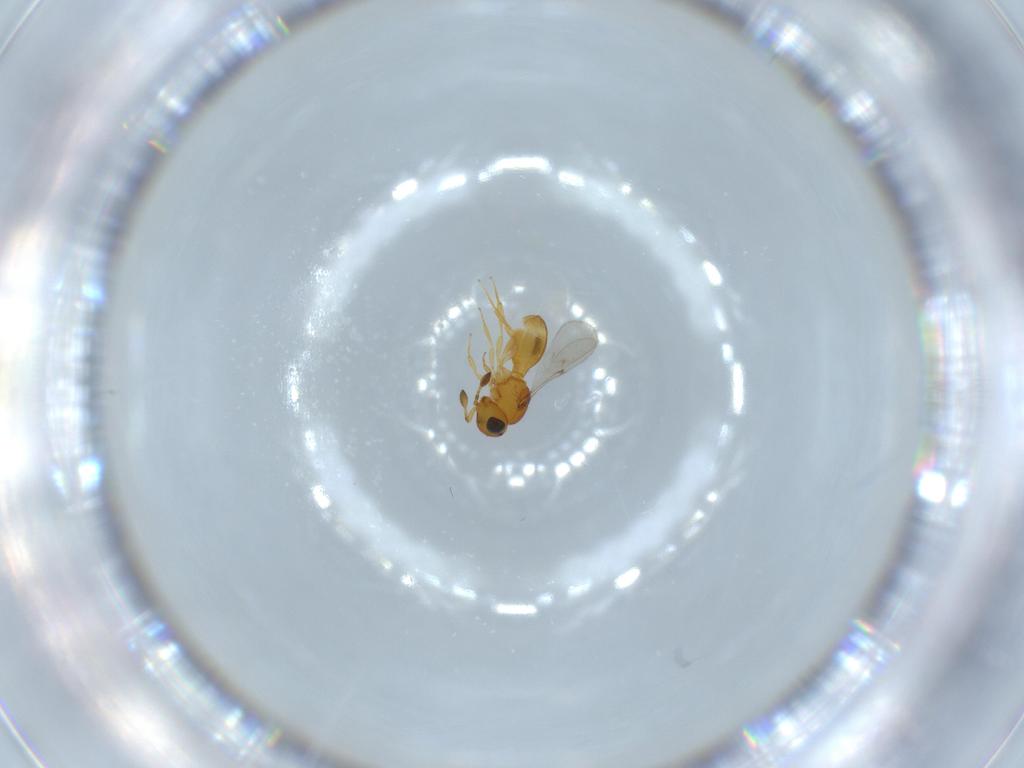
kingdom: Animalia
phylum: Arthropoda
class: Insecta
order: Hymenoptera
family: Scelionidae
